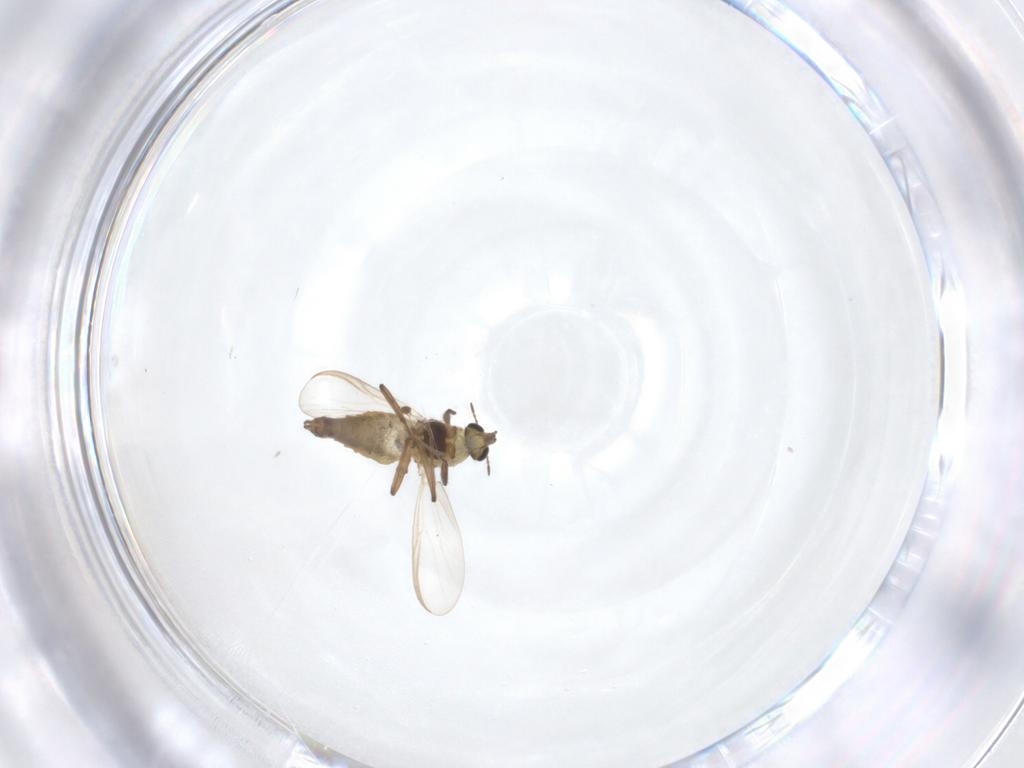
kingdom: Animalia
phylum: Arthropoda
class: Insecta
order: Diptera
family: Chironomidae
